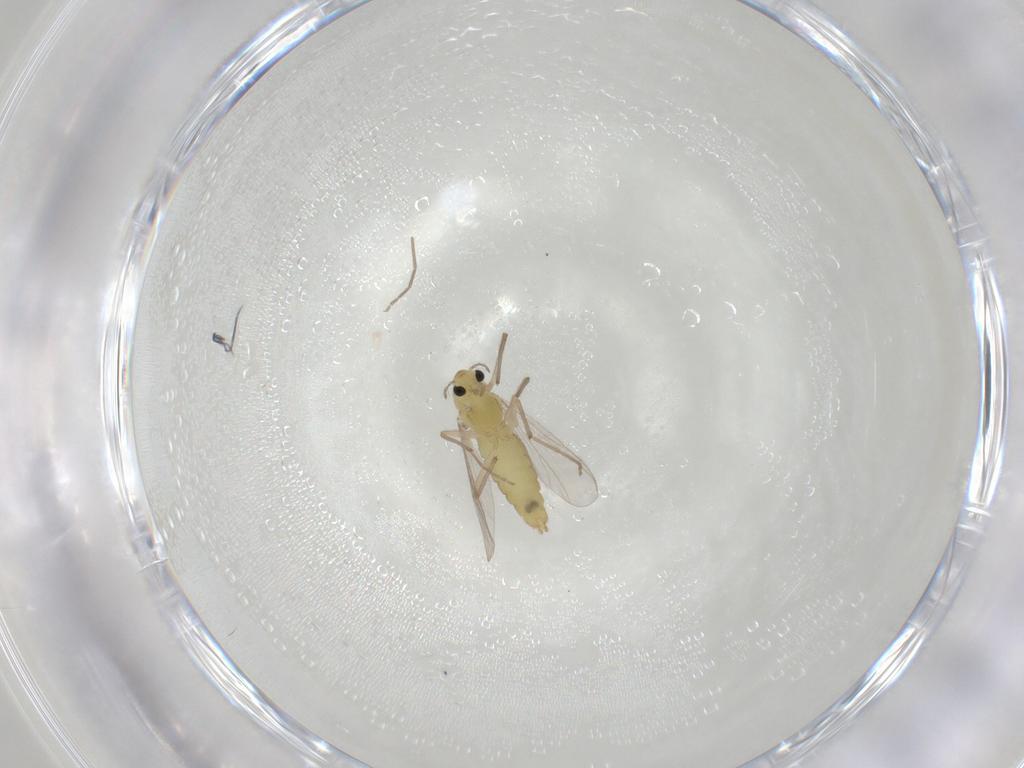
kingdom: Animalia
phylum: Arthropoda
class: Insecta
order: Diptera
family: Chironomidae
